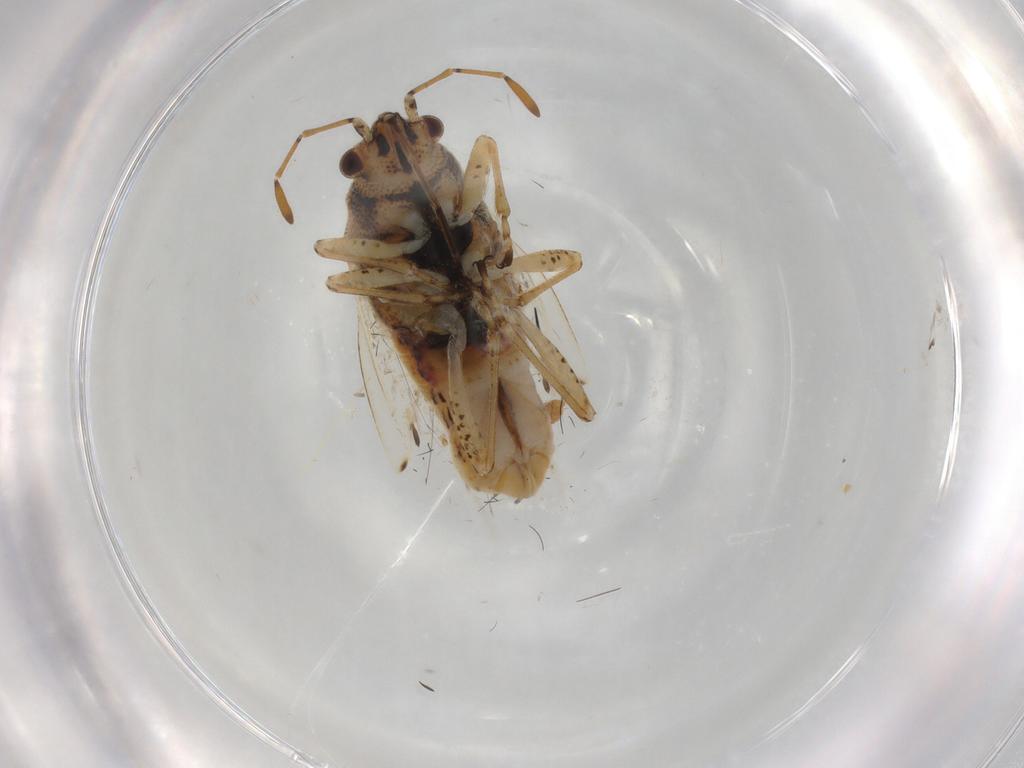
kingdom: Animalia
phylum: Arthropoda
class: Insecta
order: Hemiptera
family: Lygaeidae
